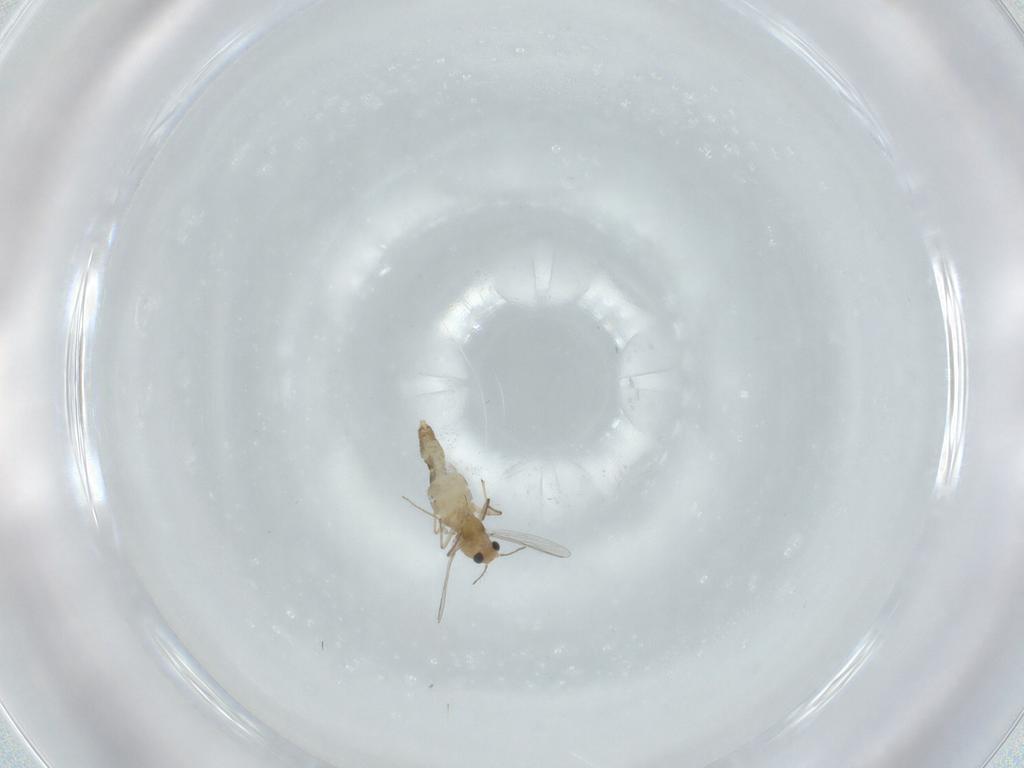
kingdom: Animalia
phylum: Arthropoda
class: Insecta
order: Diptera
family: Chironomidae
